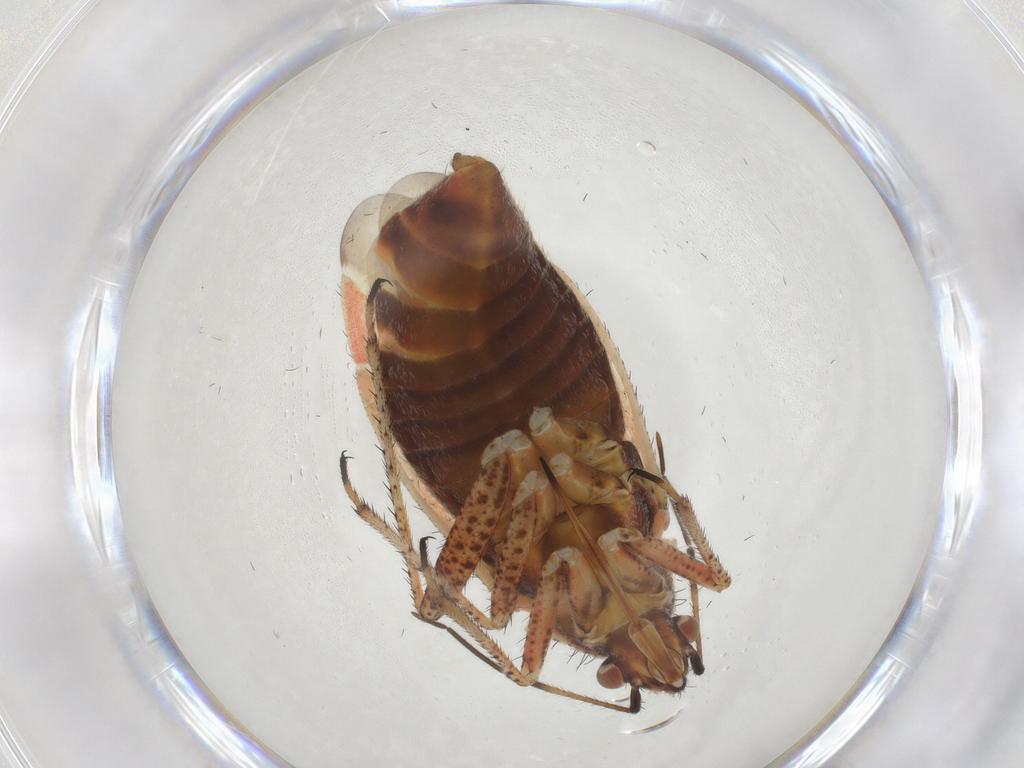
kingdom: Animalia
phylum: Arthropoda
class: Insecta
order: Hemiptera
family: Miridae
